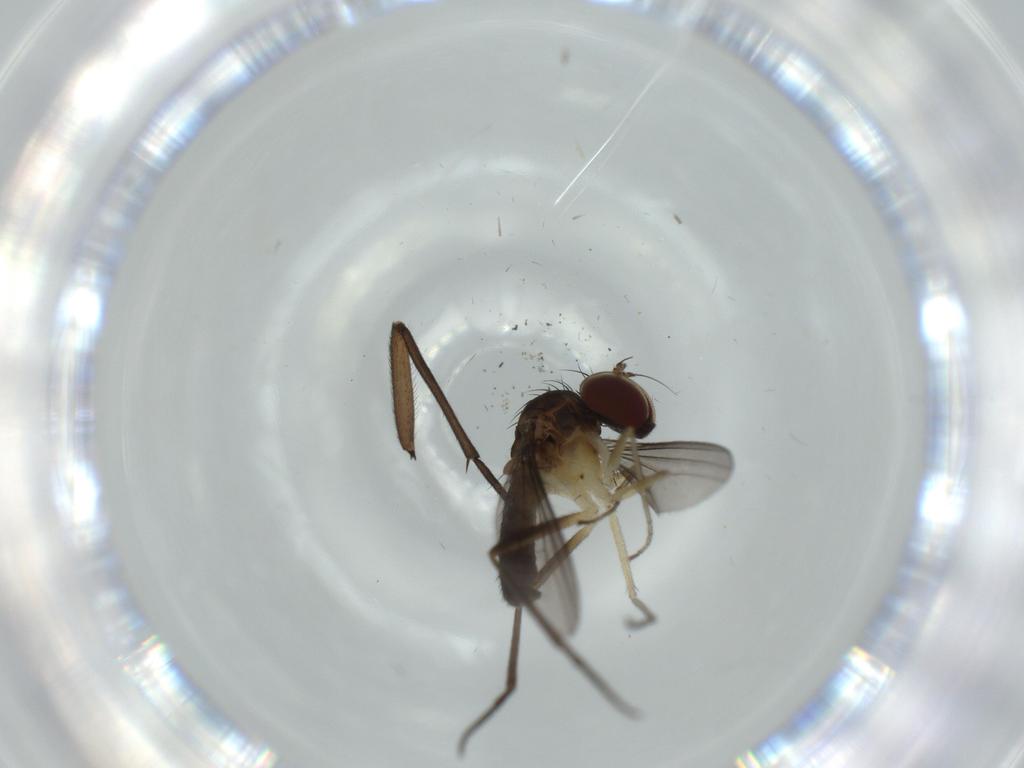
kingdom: Animalia
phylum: Arthropoda
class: Insecta
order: Diptera
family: Dolichopodidae
